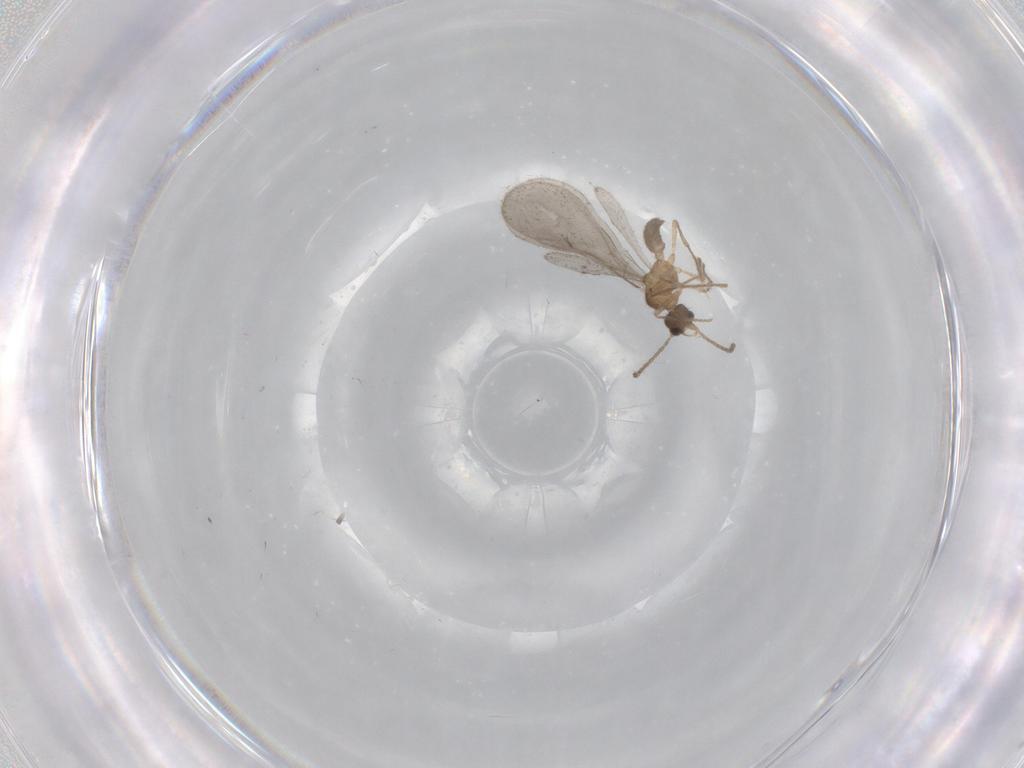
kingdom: Animalia
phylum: Arthropoda
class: Insecta
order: Hymenoptera
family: Formicidae
